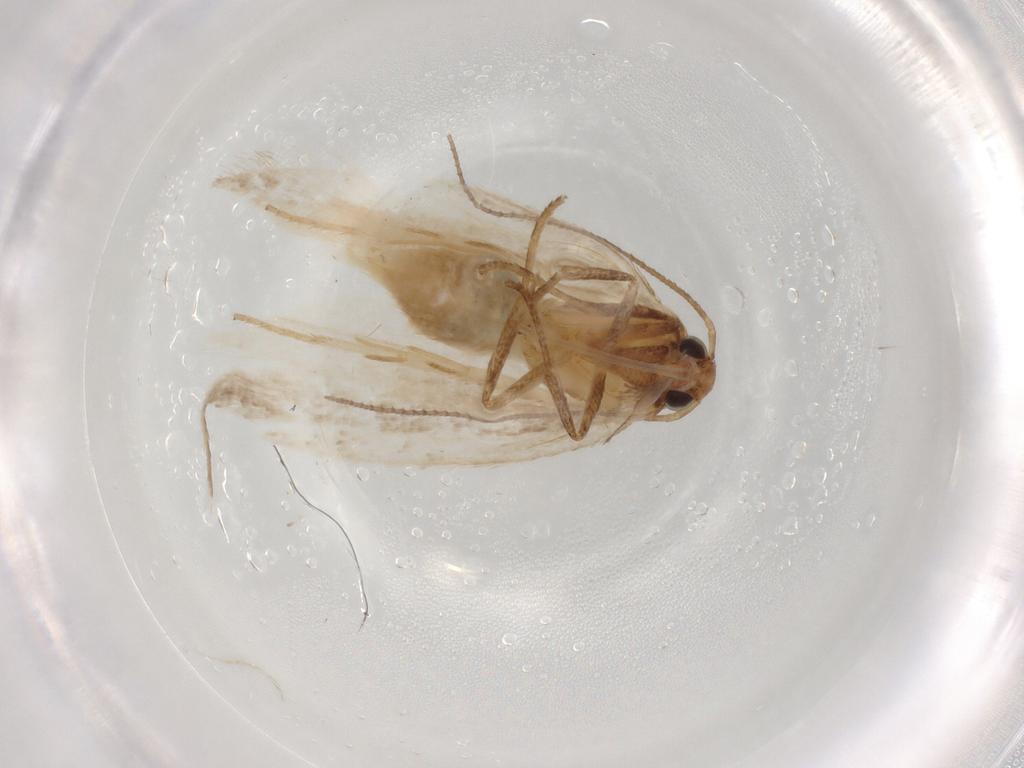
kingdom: Animalia
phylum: Arthropoda
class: Insecta
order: Lepidoptera
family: Gelechiidae
